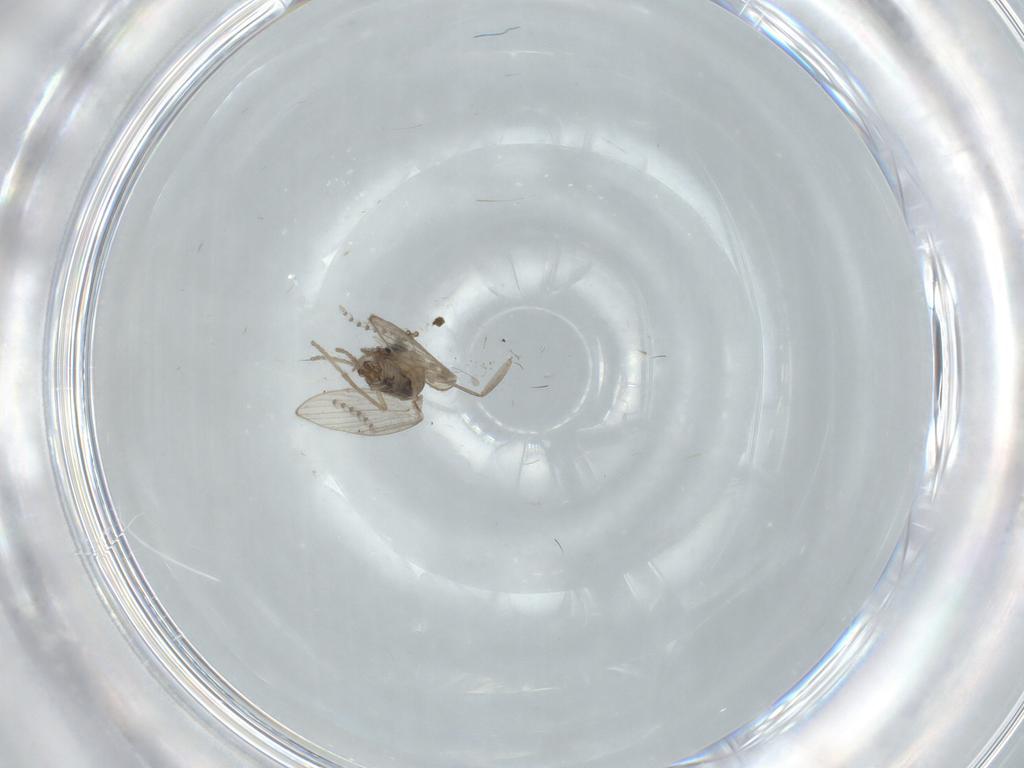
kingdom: Animalia
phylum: Arthropoda
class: Insecta
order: Diptera
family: Psychodidae
